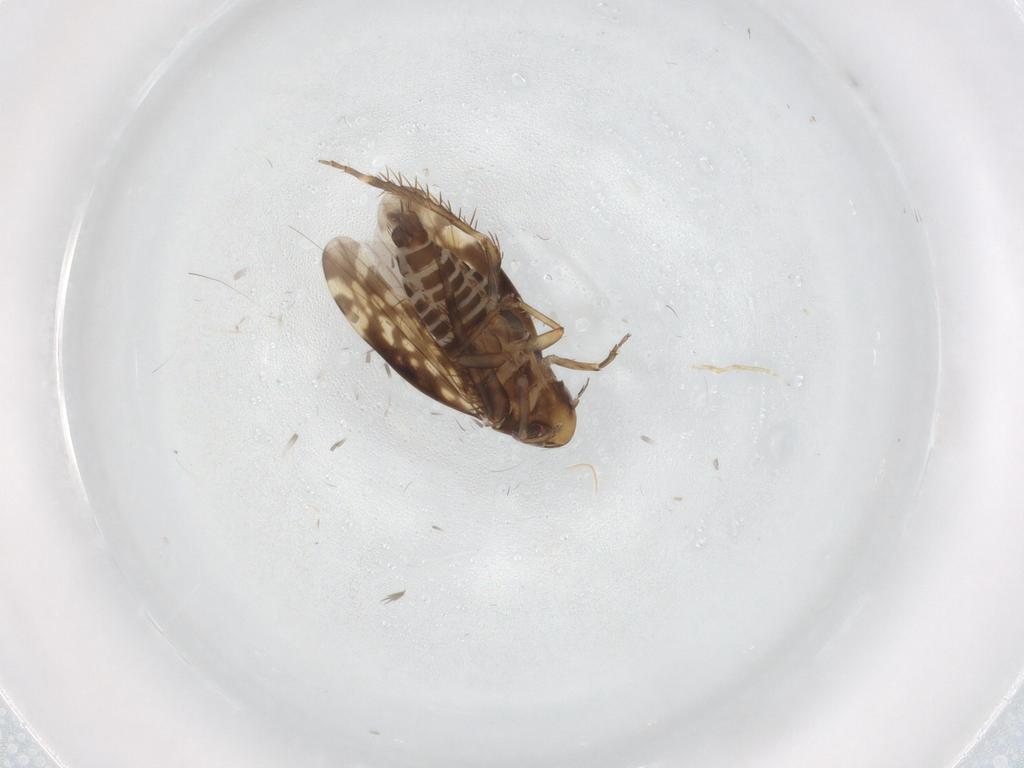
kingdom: Animalia
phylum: Arthropoda
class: Insecta
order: Hemiptera
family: Cicadellidae
